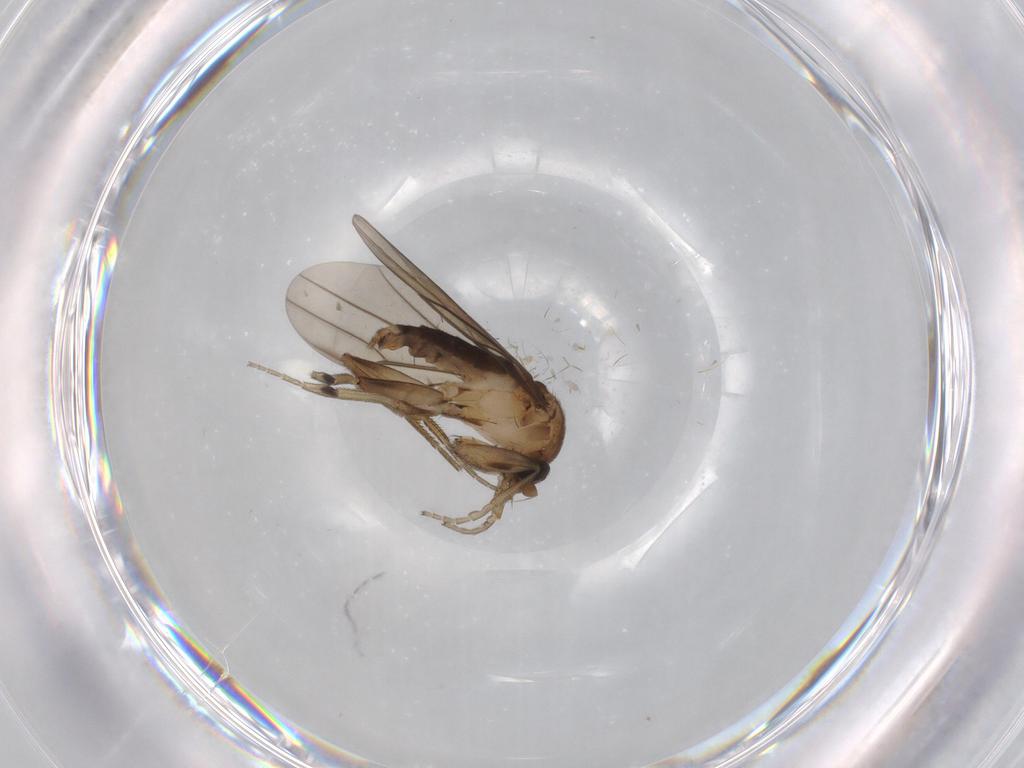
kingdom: Animalia
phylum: Arthropoda
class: Insecta
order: Diptera
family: Phoridae
